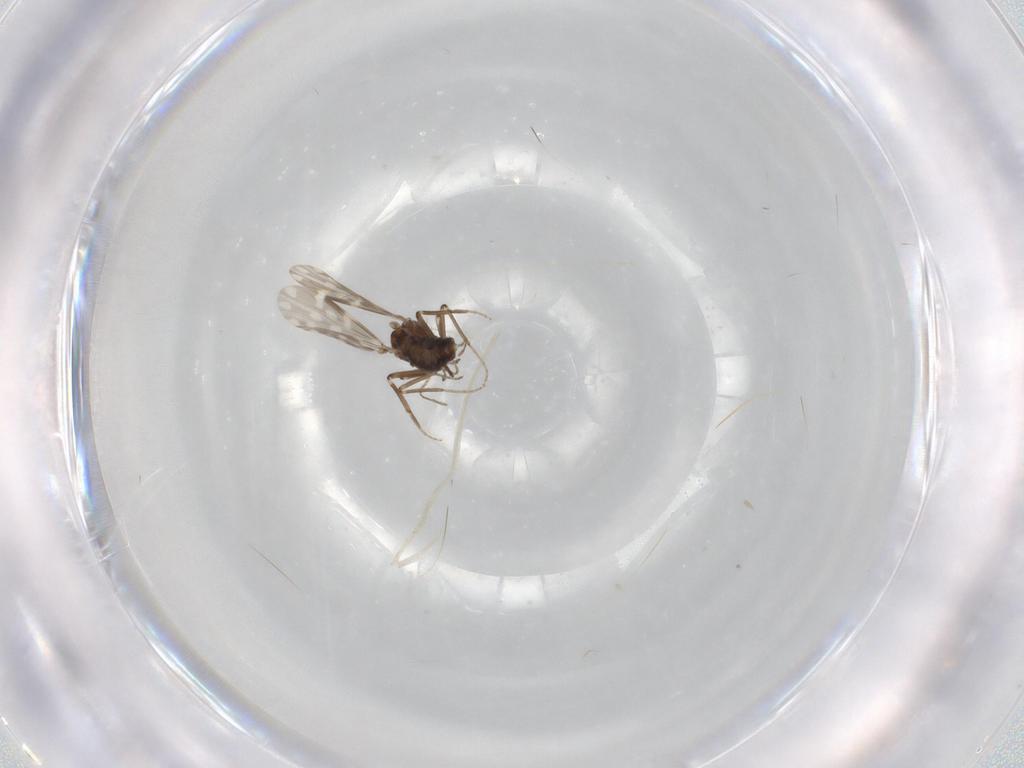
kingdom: Animalia
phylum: Arthropoda
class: Insecta
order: Diptera
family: Ceratopogonidae
